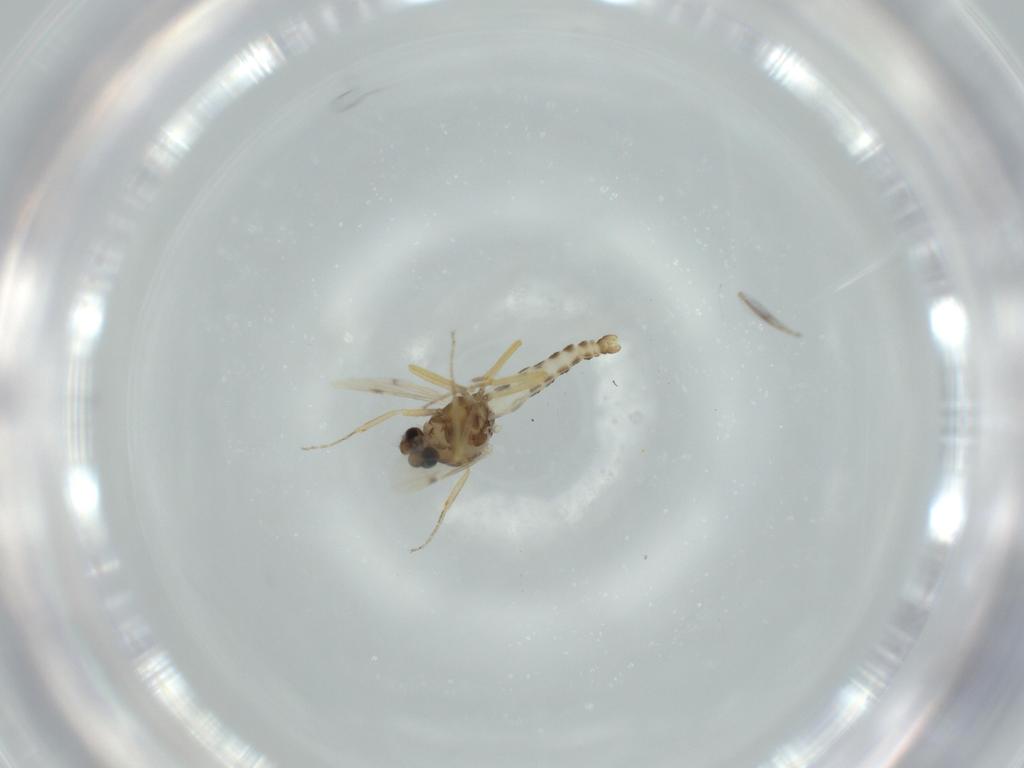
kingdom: Animalia
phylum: Arthropoda
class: Insecta
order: Diptera
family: Ceratopogonidae
